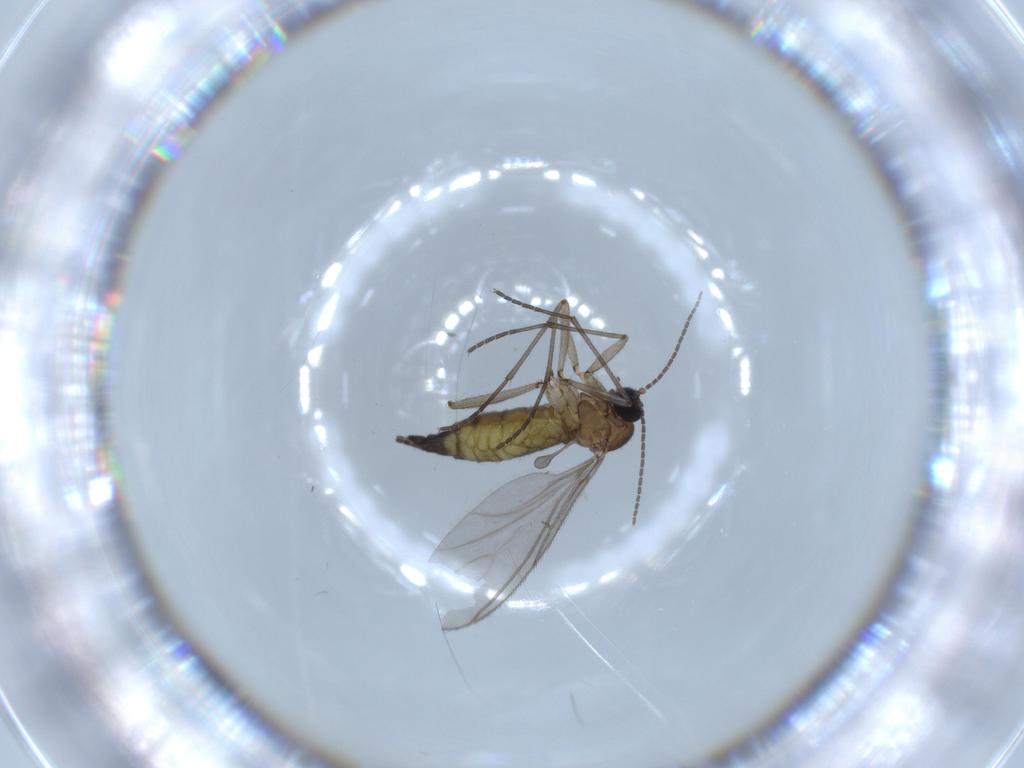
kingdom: Animalia
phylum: Arthropoda
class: Insecta
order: Diptera
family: Sciaridae
